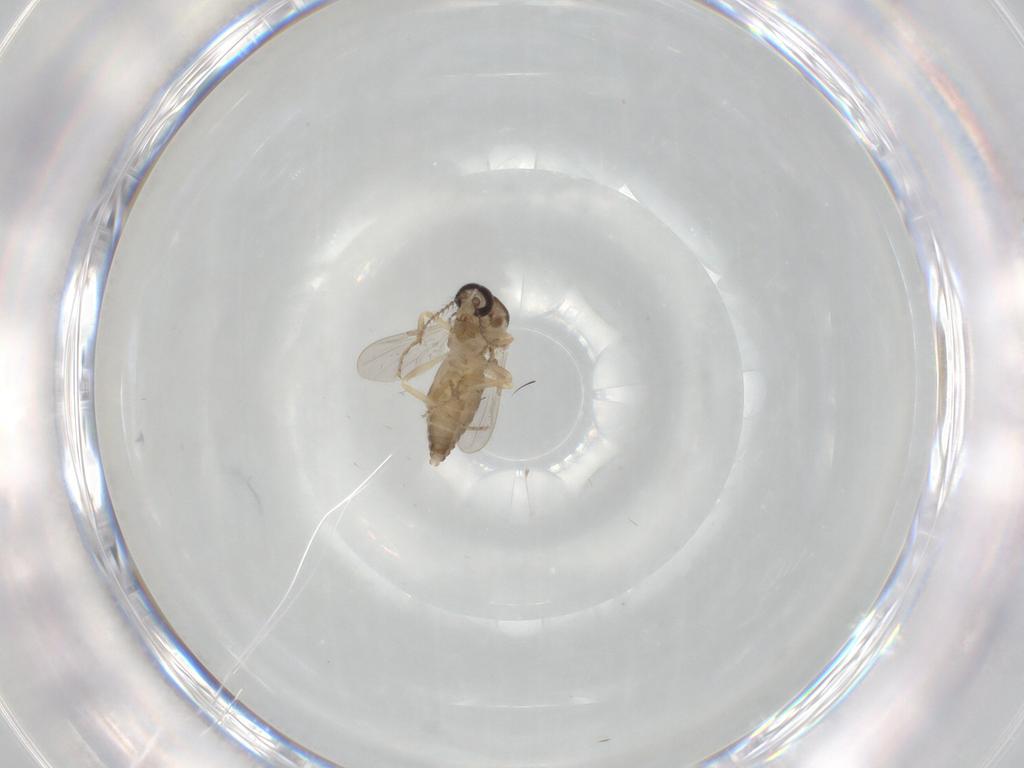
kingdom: Animalia
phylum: Arthropoda
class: Insecta
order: Diptera
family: Ceratopogonidae
